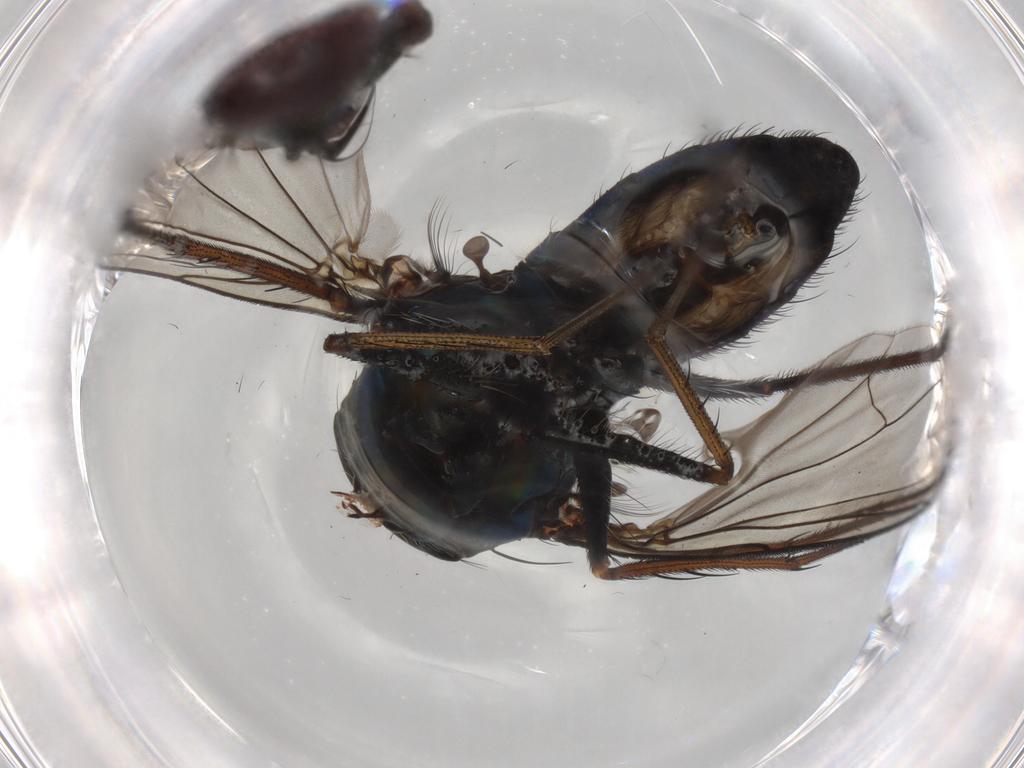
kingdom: Animalia
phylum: Arthropoda
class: Insecta
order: Diptera
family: Dolichopodidae
